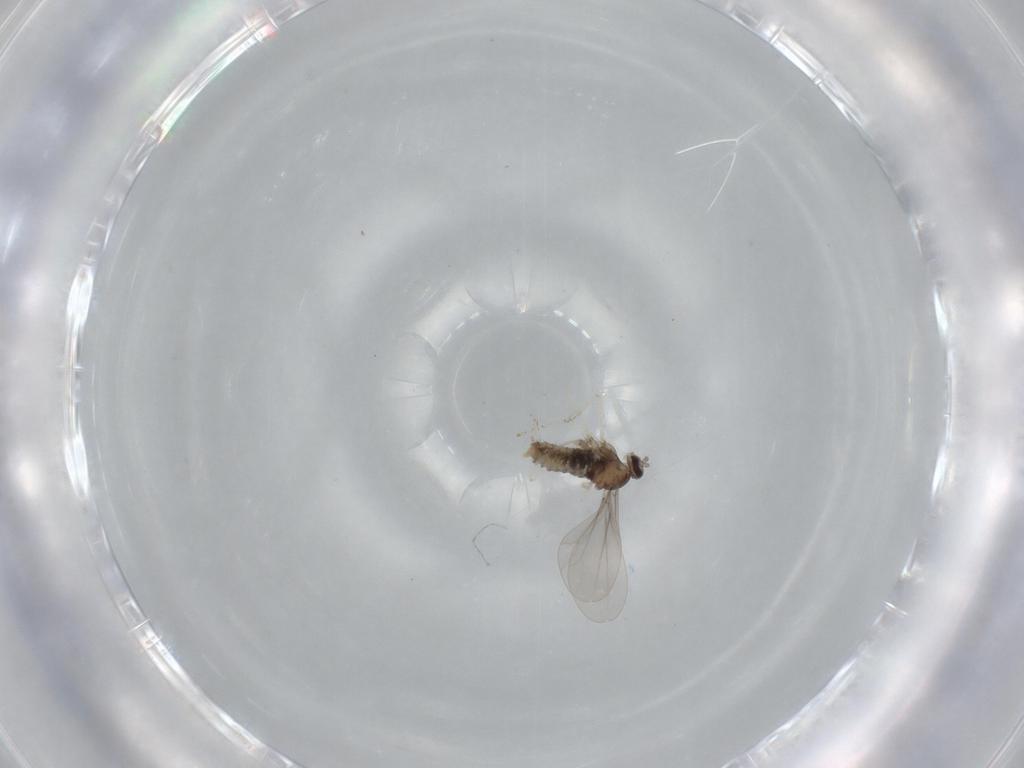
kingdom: Animalia
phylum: Arthropoda
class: Insecta
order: Diptera
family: Cecidomyiidae
